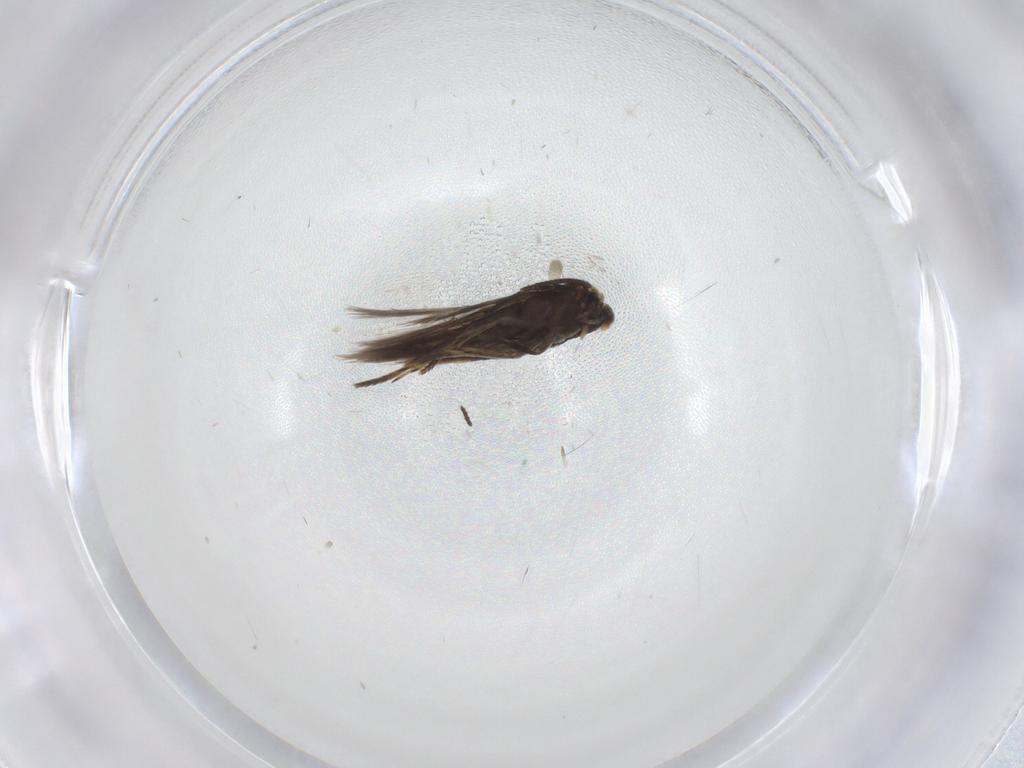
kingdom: Animalia
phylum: Arthropoda
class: Insecta
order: Lepidoptera
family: Nepticulidae
